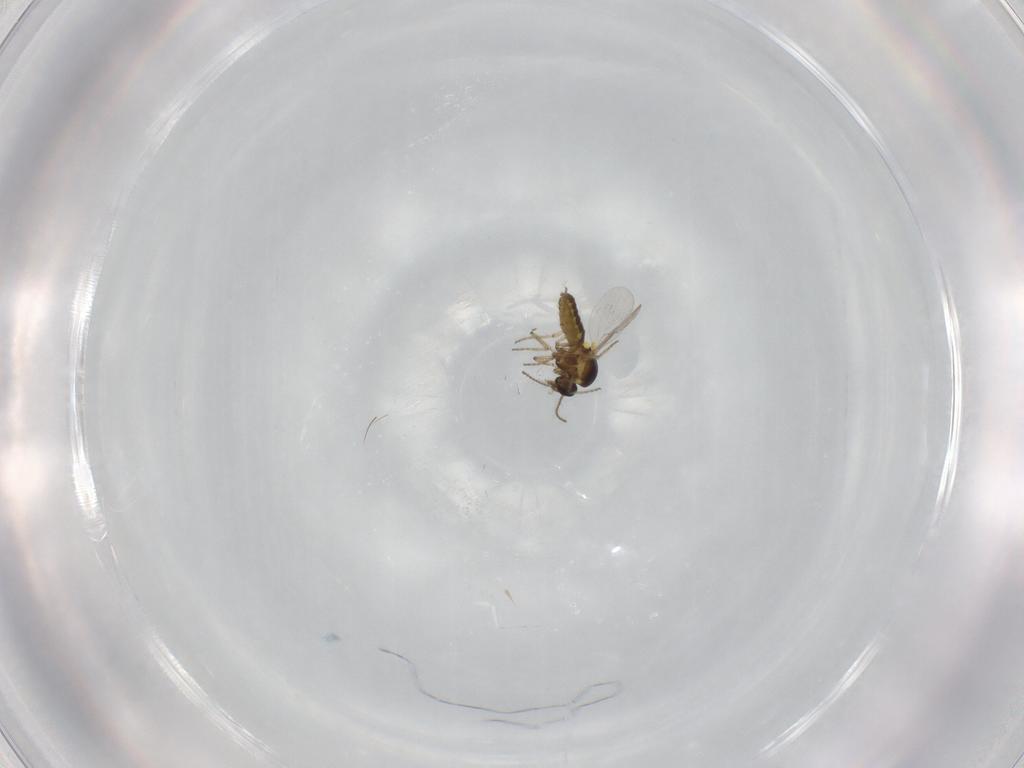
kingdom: Animalia
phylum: Arthropoda
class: Insecta
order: Diptera
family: Ceratopogonidae
